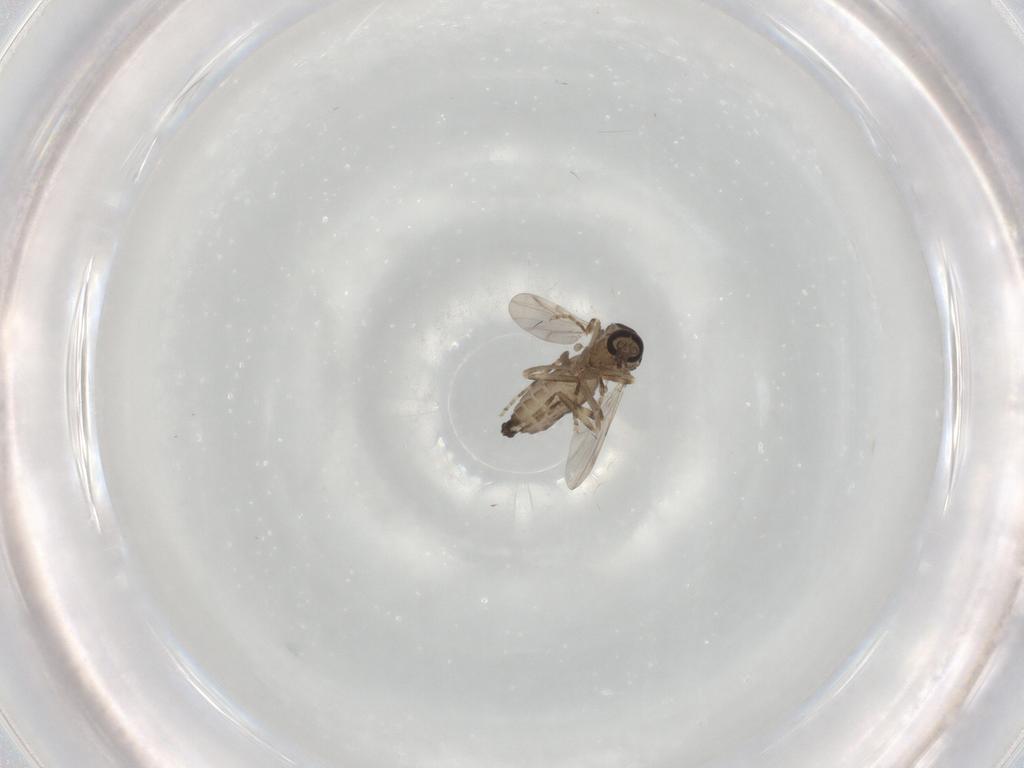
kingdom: Animalia
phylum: Arthropoda
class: Insecta
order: Diptera
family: Ceratopogonidae
